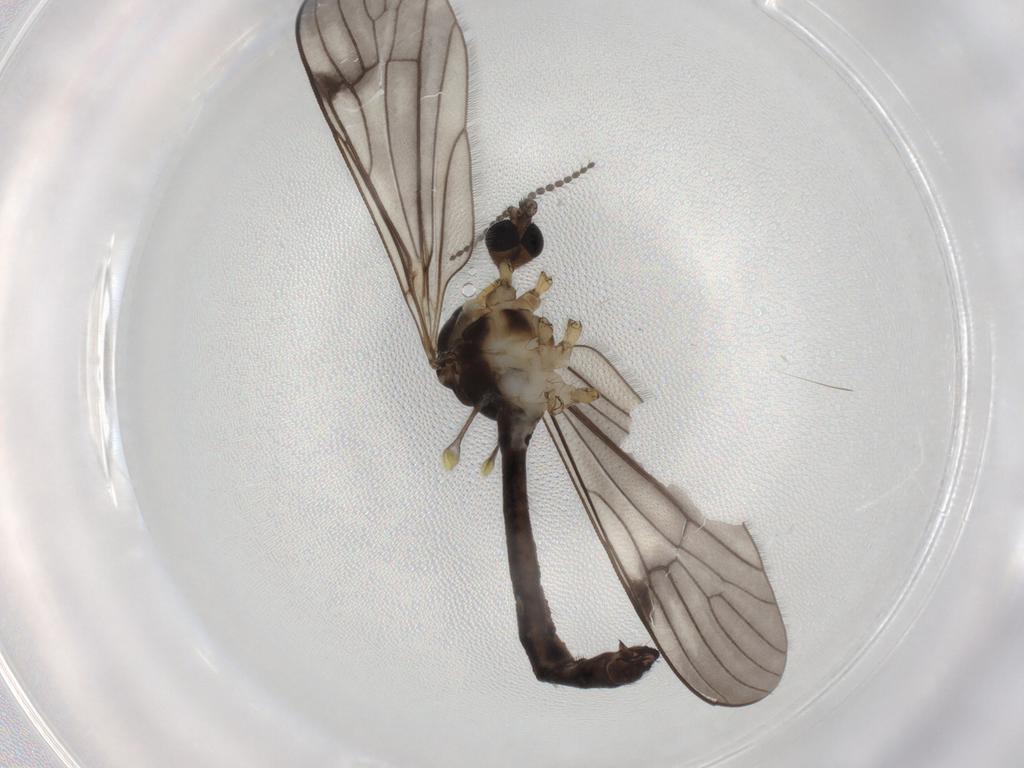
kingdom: Animalia
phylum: Arthropoda
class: Insecta
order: Diptera
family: Limoniidae
